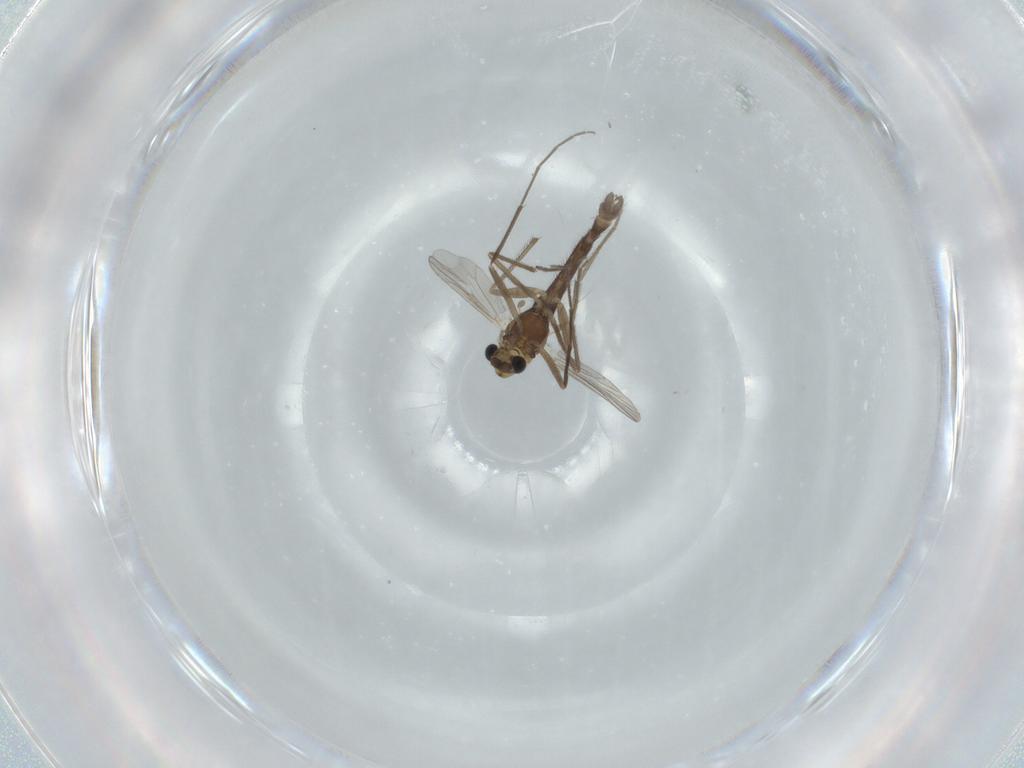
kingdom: Animalia
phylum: Arthropoda
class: Insecta
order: Diptera
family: Chironomidae
